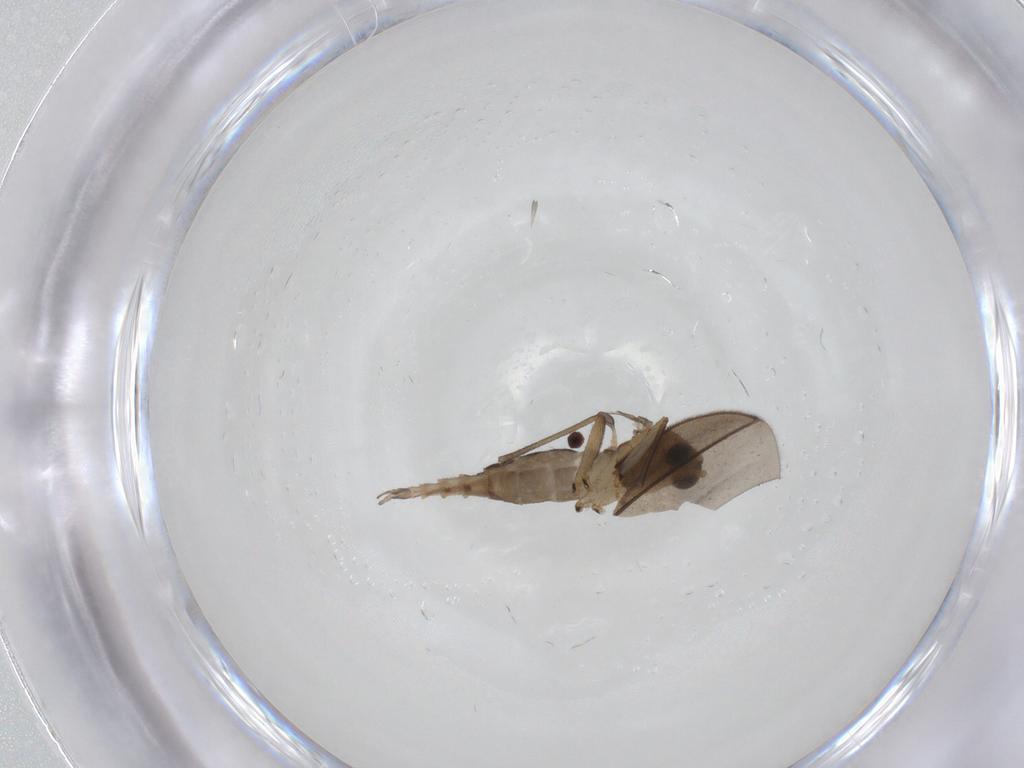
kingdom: Animalia
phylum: Arthropoda
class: Insecta
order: Diptera
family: Sciaridae
